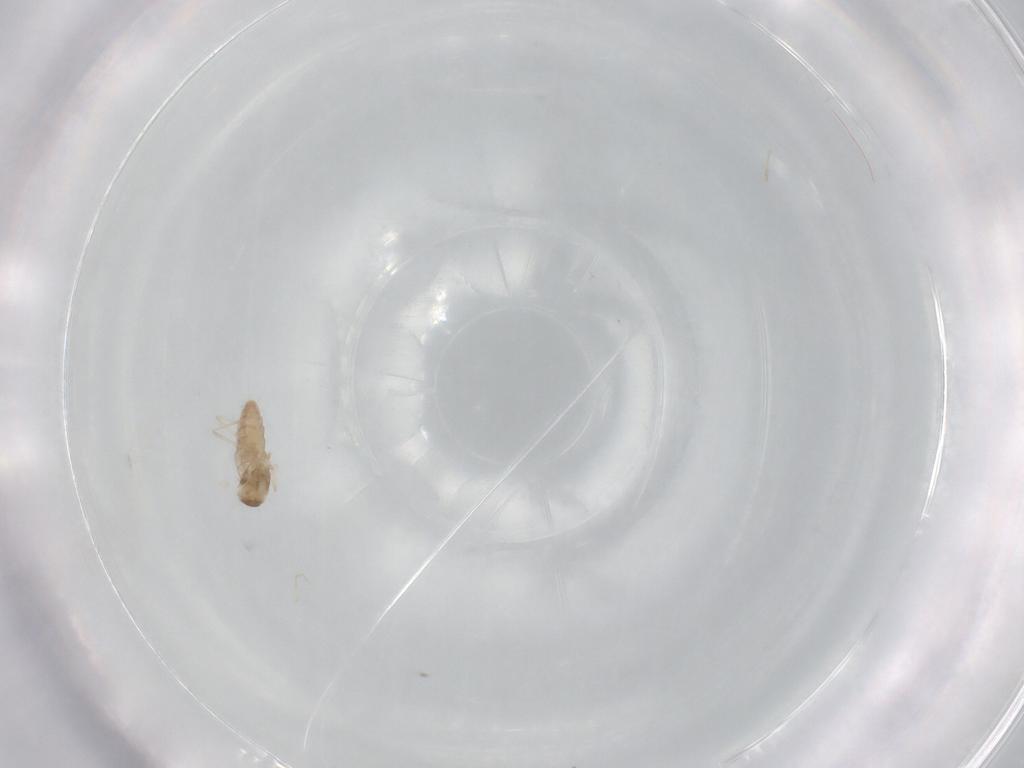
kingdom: Animalia
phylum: Arthropoda
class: Insecta
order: Diptera
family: Cecidomyiidae
